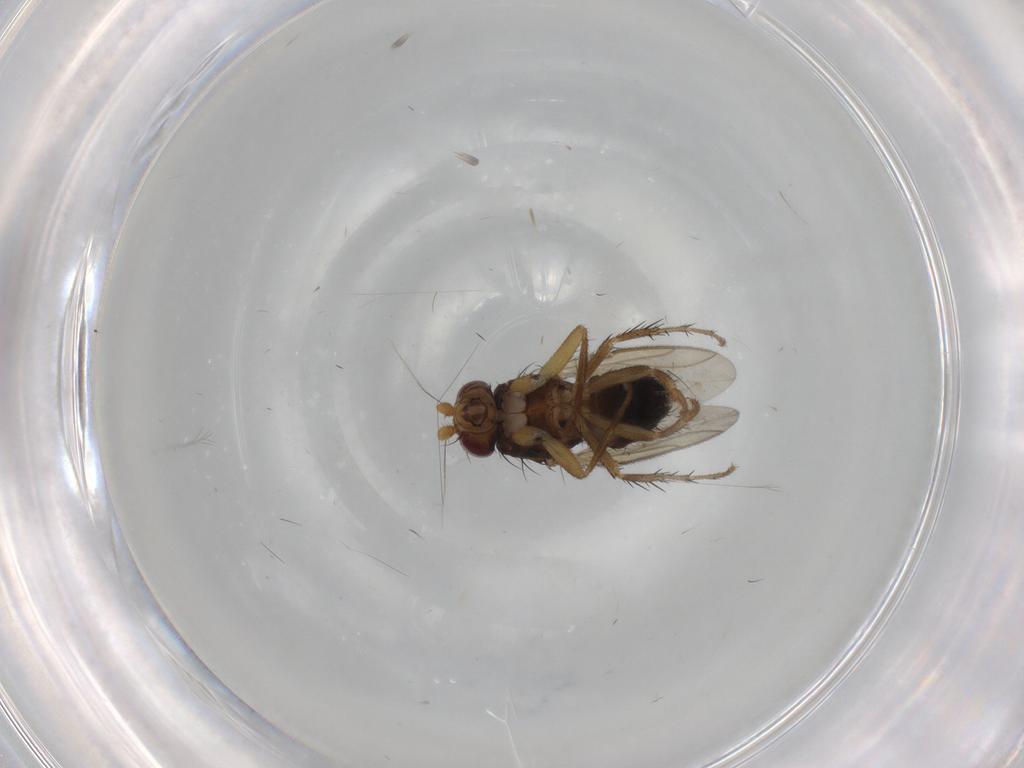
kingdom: Animalia
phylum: Arthropoda
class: Insecta
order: Diptera
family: Sphaeroceridae
